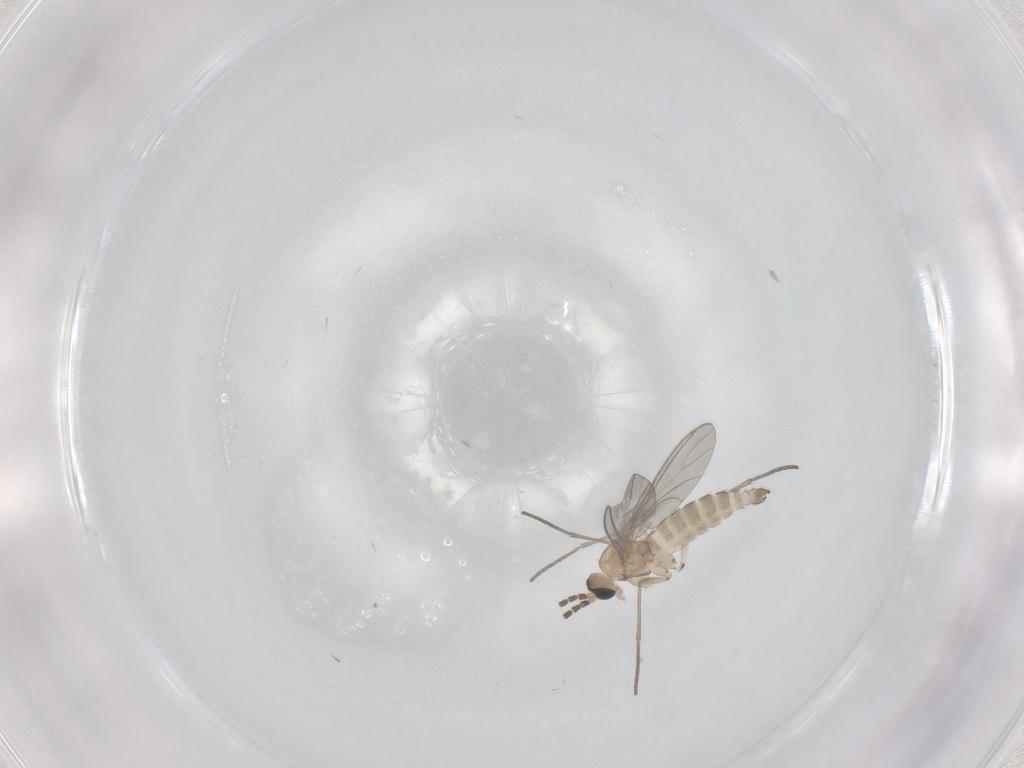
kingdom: Animalia
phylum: Arthropoda
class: Insecta
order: Diptera
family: Cecidomyiidae
